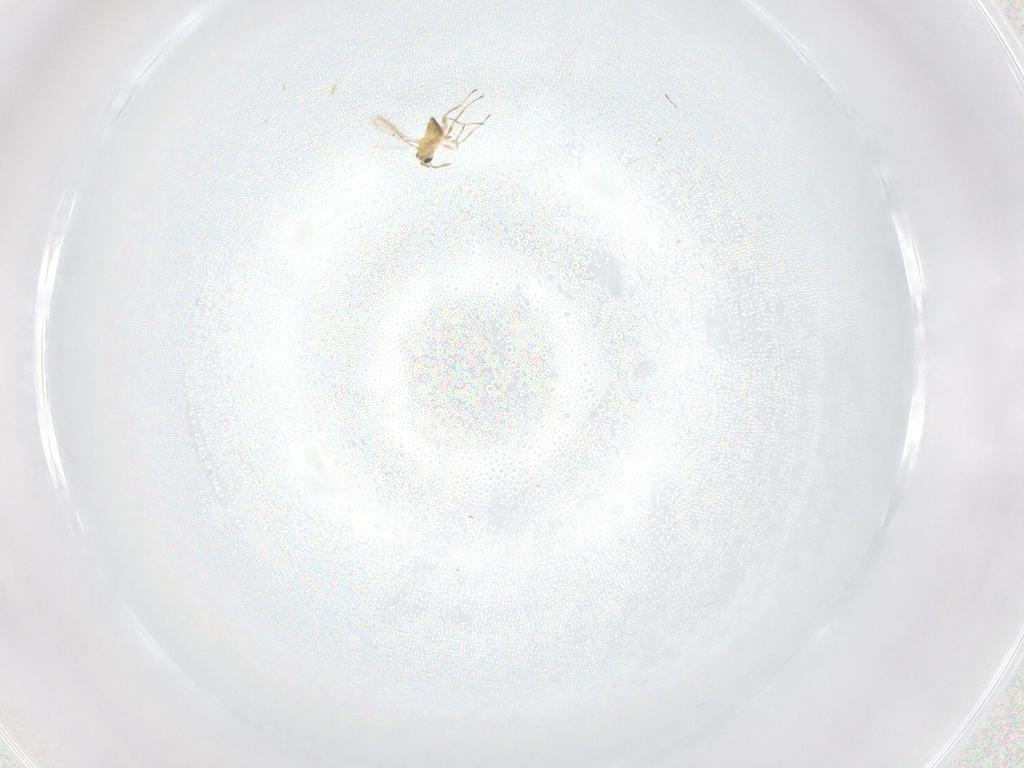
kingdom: Animalia
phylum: Arthropoda
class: Insecta
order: Hymenoptera
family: Trichogrammatidae
